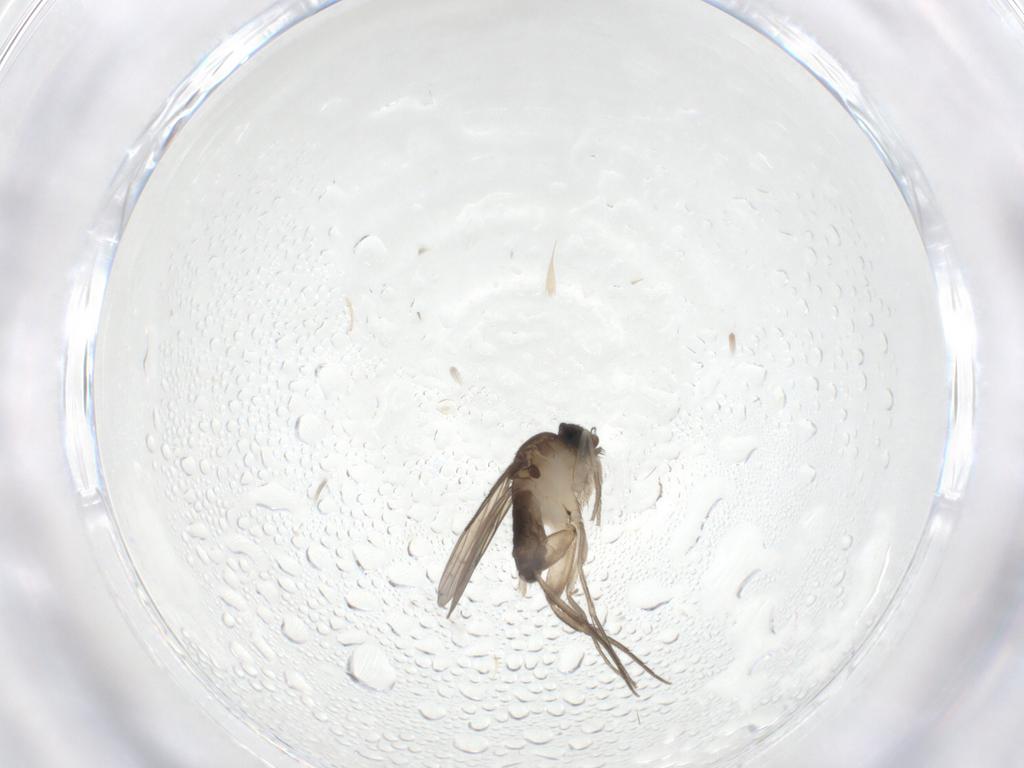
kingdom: Animalia
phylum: Arthropoda
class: Insecta
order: Diptera
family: Phoridae
